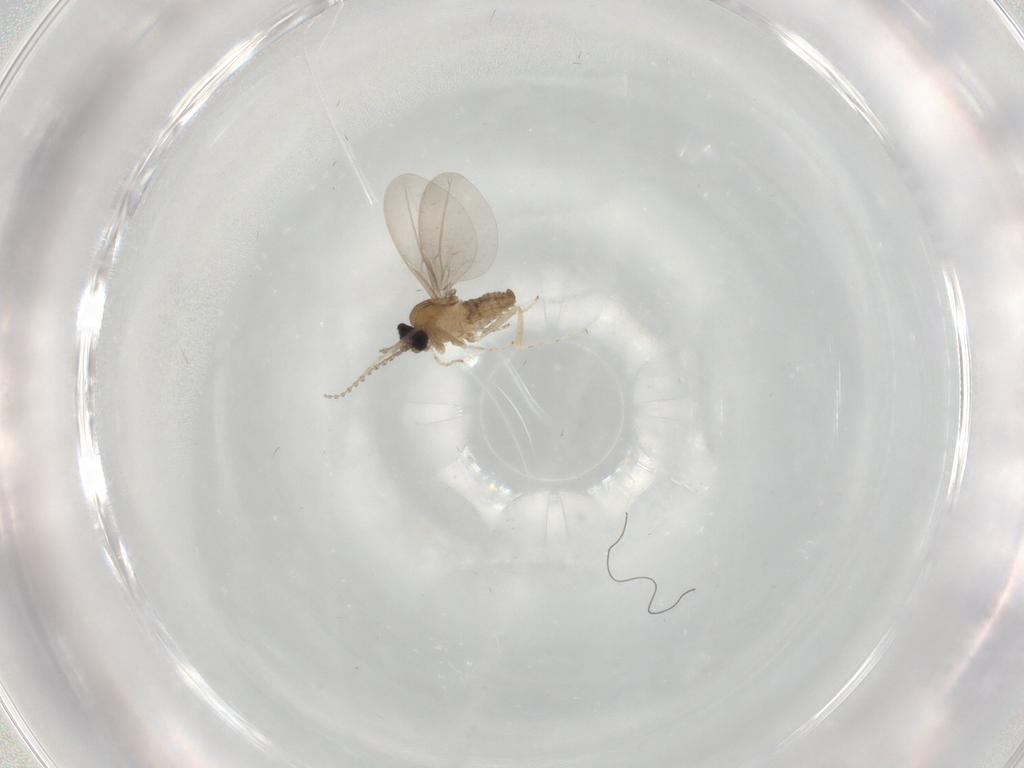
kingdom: Animalia
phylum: Arthropoda
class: Insecta
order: Diptera
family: Cecidomyiidae
